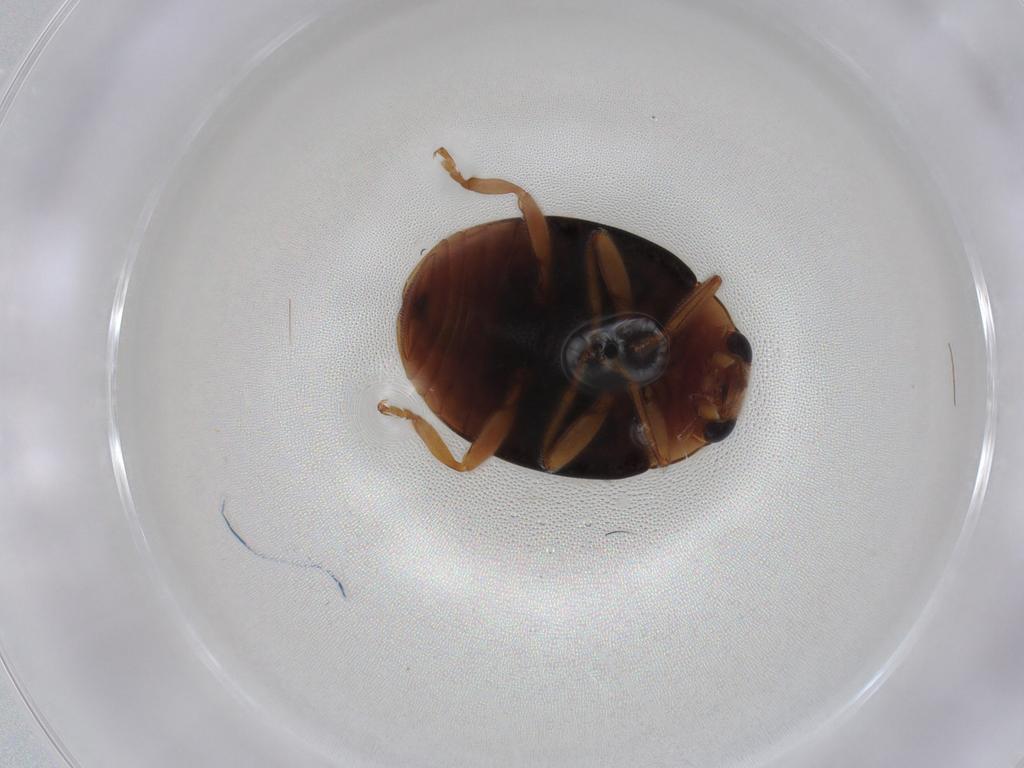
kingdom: Animalia
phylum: Arthropoda
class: Insecta
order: Coleoptera
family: Coccinellidae
